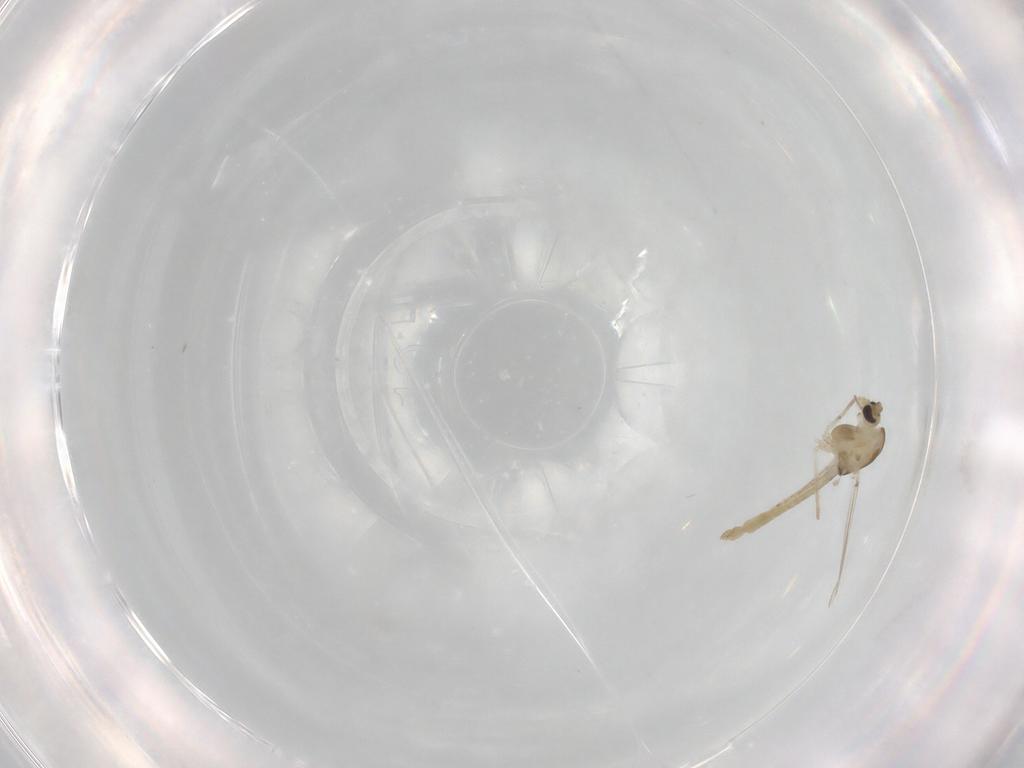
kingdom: Animalia
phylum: Arthropoda
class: Insecta
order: Diptera
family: Chironomidae
